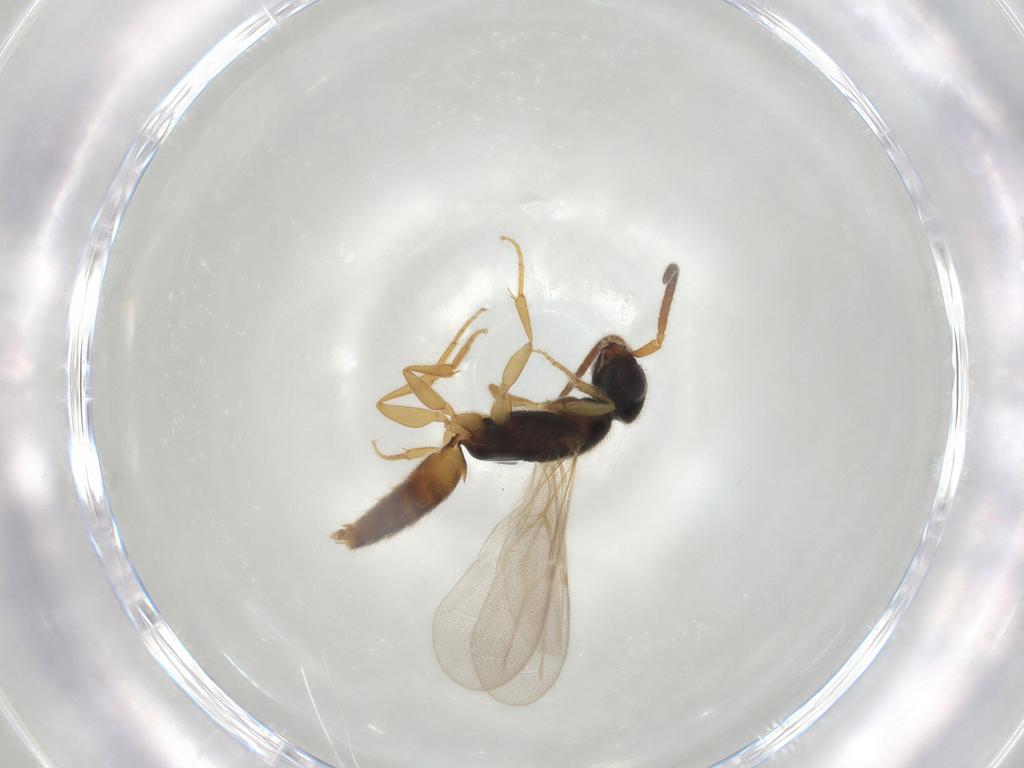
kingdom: Animalia
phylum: Arthropoda
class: Insecta
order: Hymenoptera
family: Bethylidae
